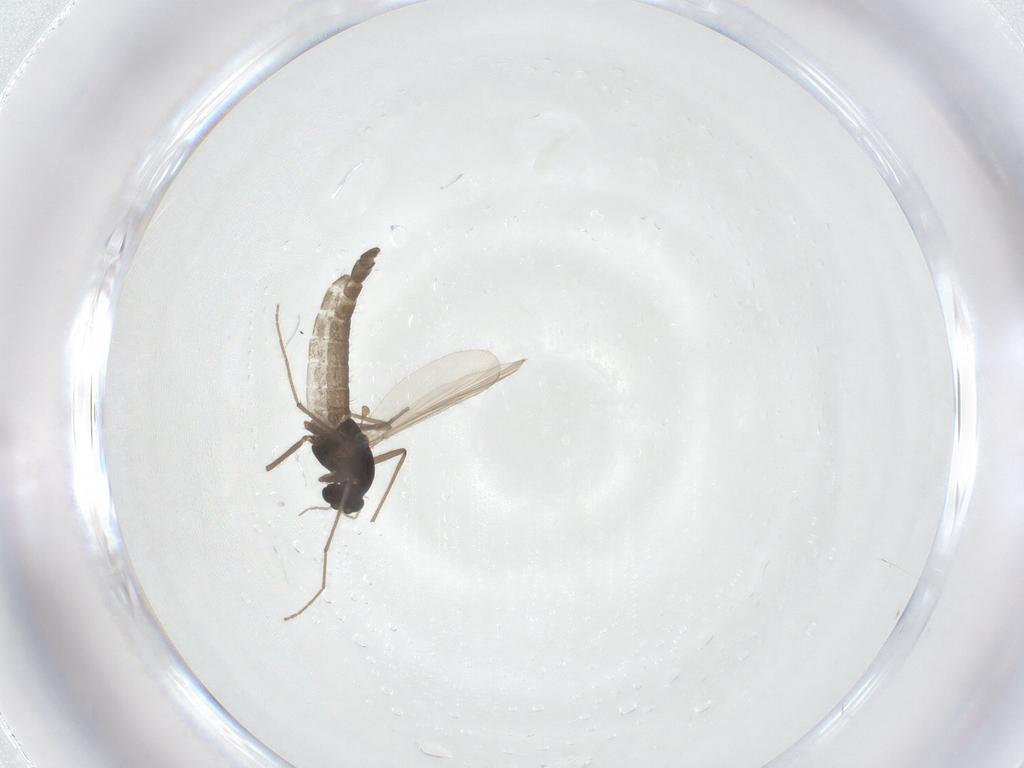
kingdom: Animalia
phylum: Arthropoda
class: Insecta
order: Diptera
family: Chironomidae
